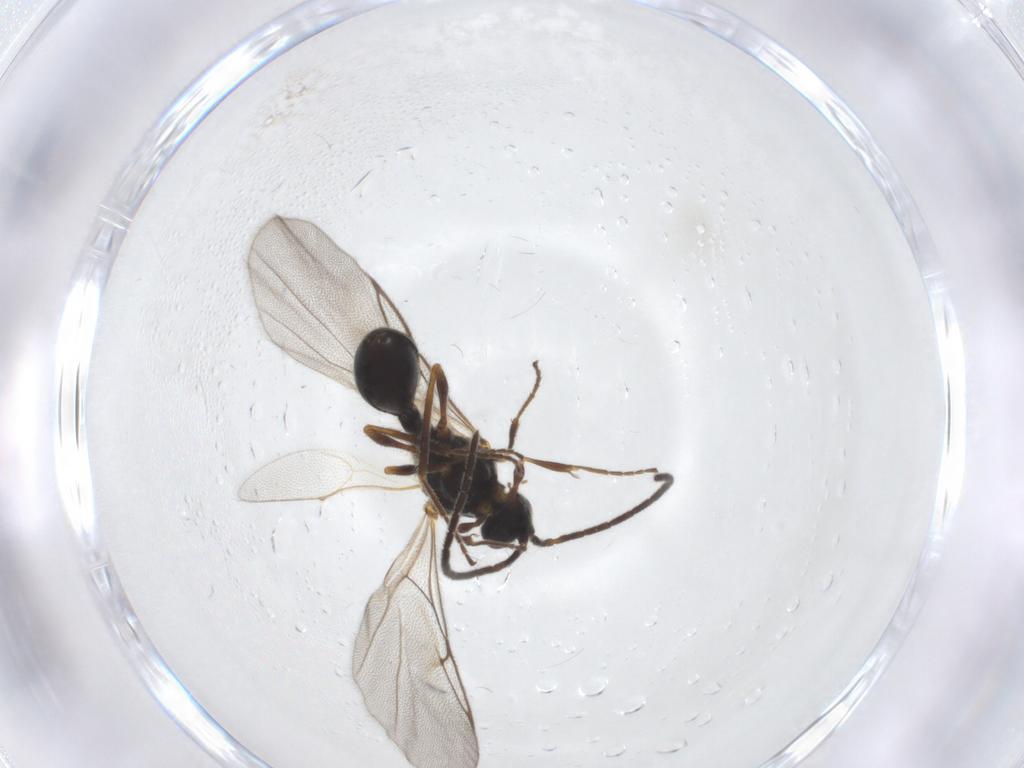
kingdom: Animalia
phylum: Arthropoda
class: Insecta
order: Hymenoptera
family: Diapriidae
